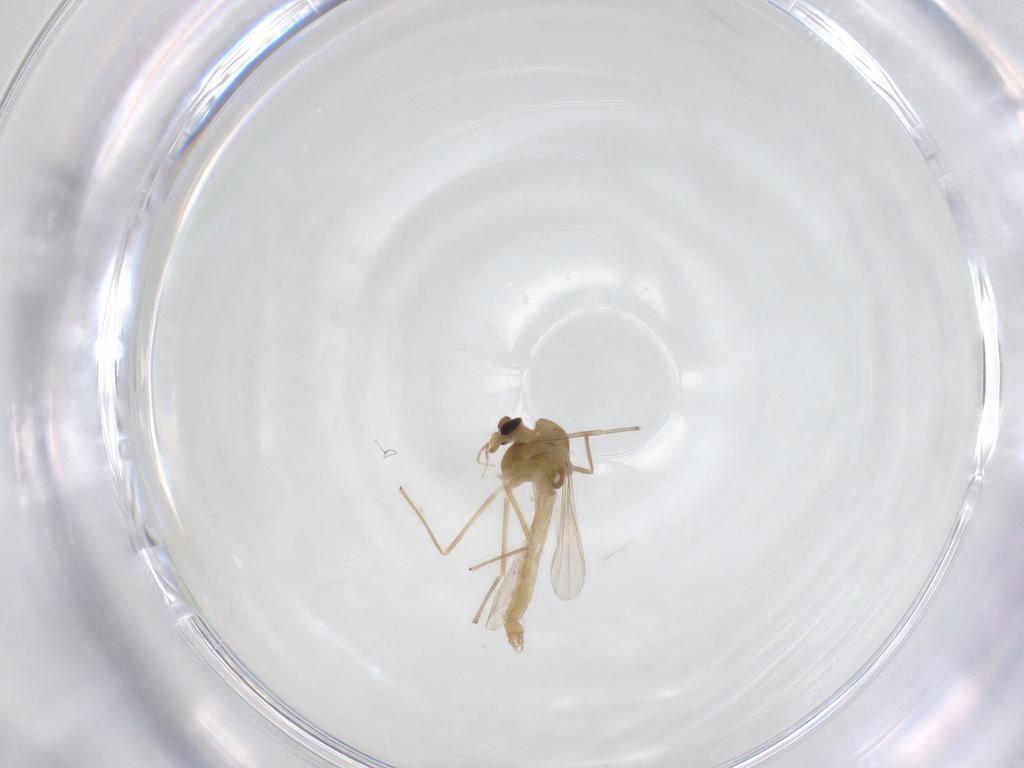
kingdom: Animalia
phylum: Arthropoda
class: Insecta
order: Diptera
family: Chironomidae
